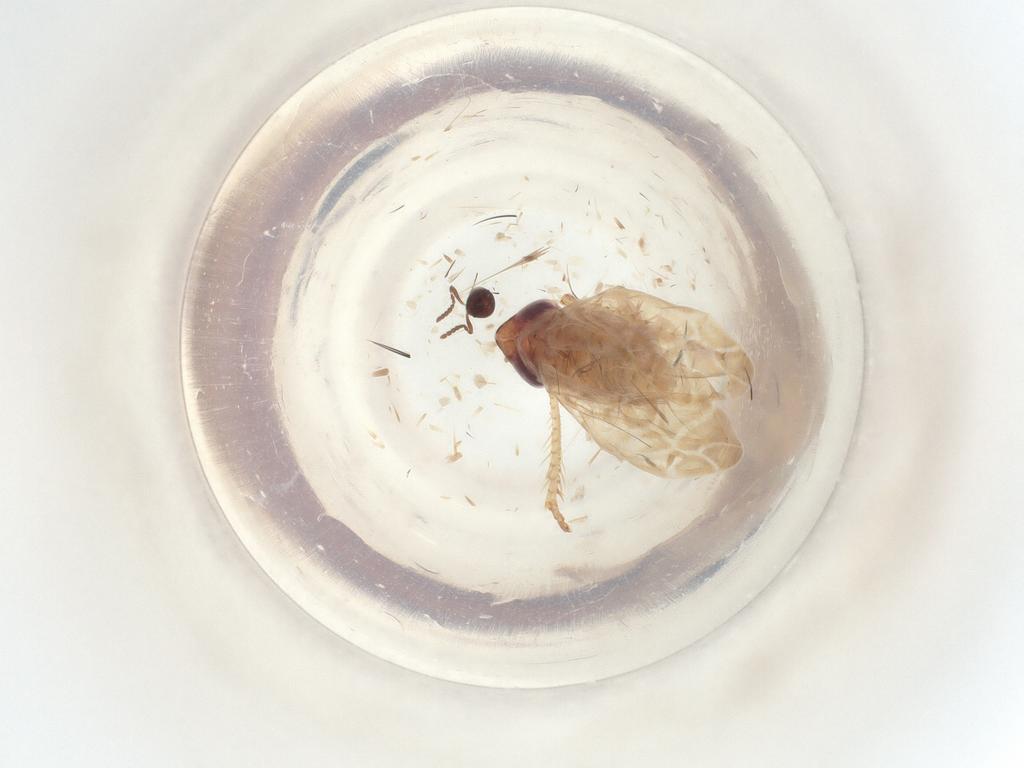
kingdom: Animalia
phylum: Arthropoda
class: Insecta
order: Hemiptera
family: Cicadellidae
